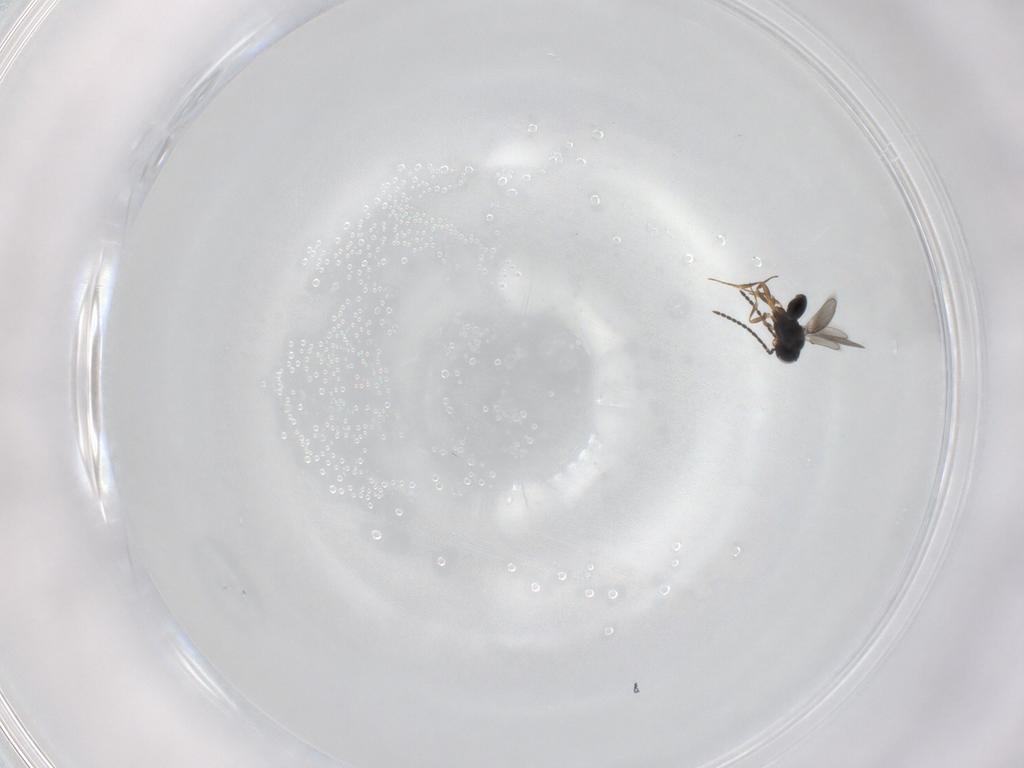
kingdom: Animalia
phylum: Arthropoda
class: Insecta
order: Hymenoptera
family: Scelionidae
